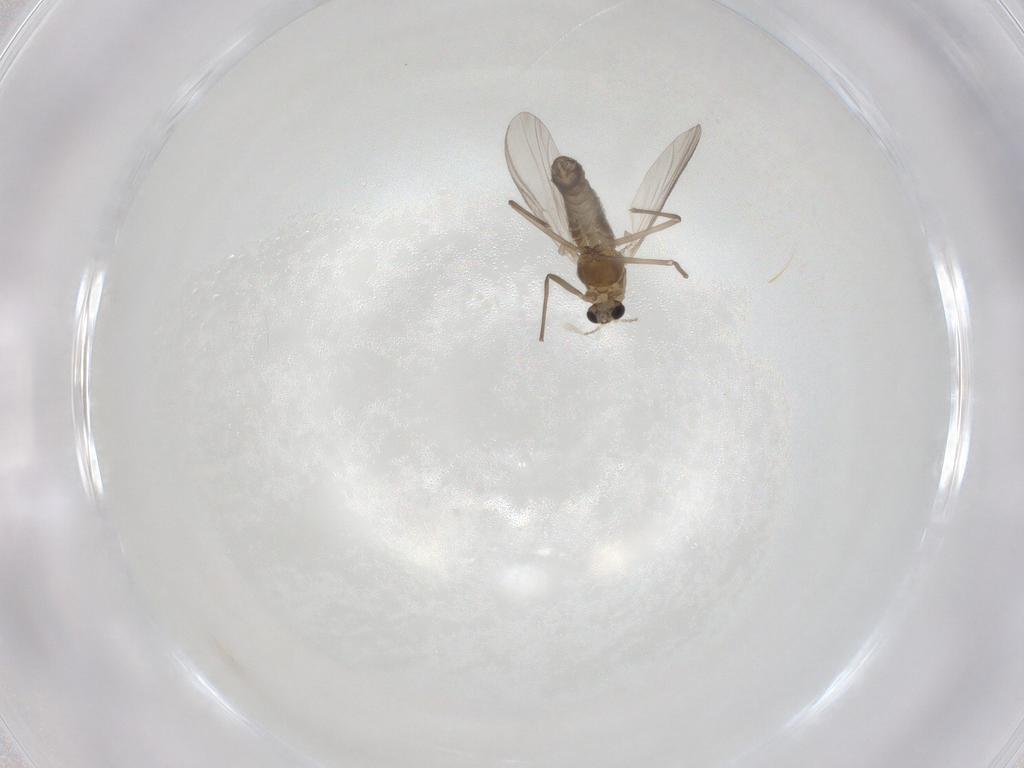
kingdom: Animalia
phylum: Arthropoda
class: Insecta
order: Diptera
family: Chironomidae
